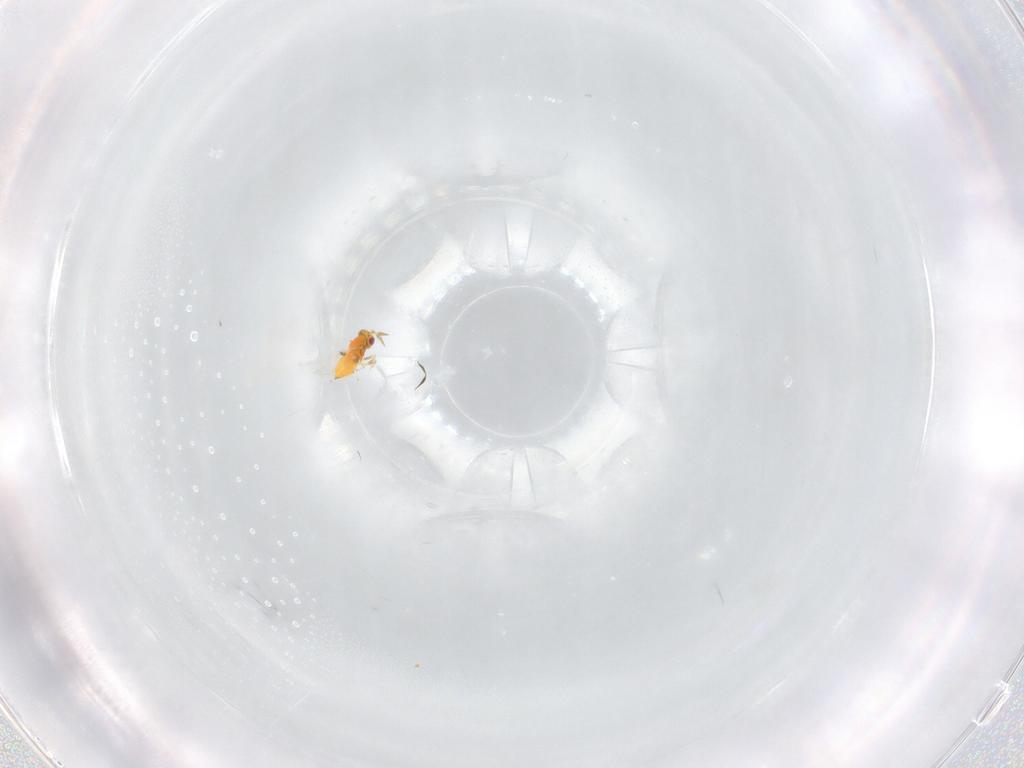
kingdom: Animalia
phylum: Arthropoda
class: Insecta
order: Hymenoptera
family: Trichogrammatidae
